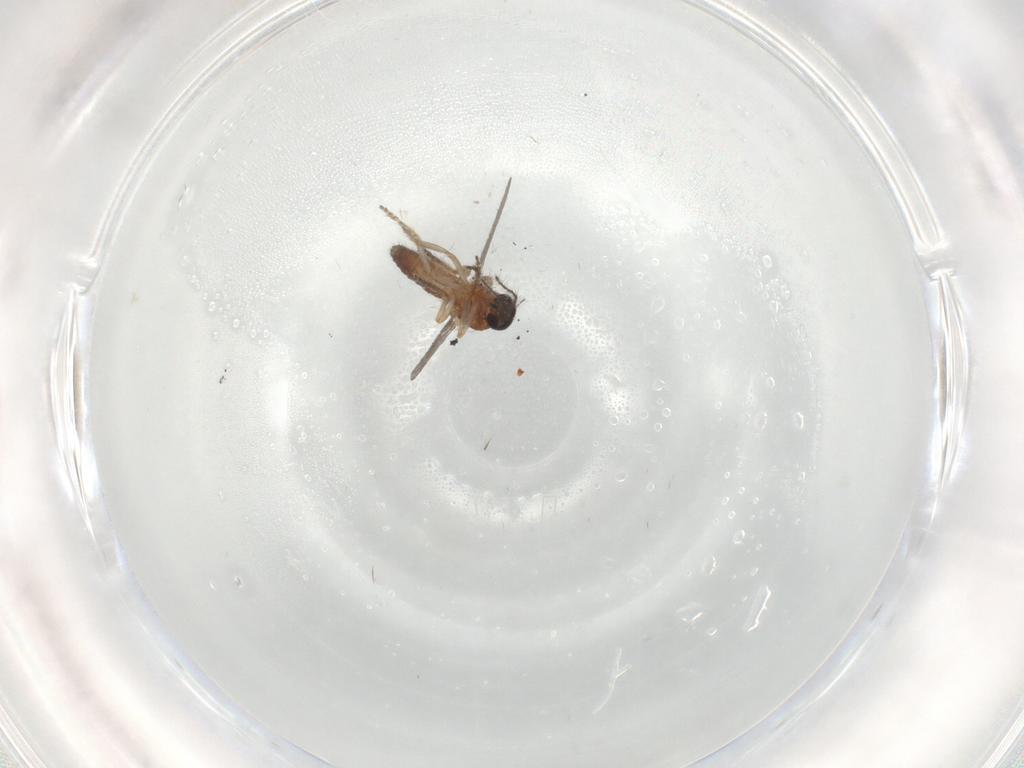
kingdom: Animalia
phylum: Arthropoda
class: Insecta
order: Diptera
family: Ceratopogonidae
